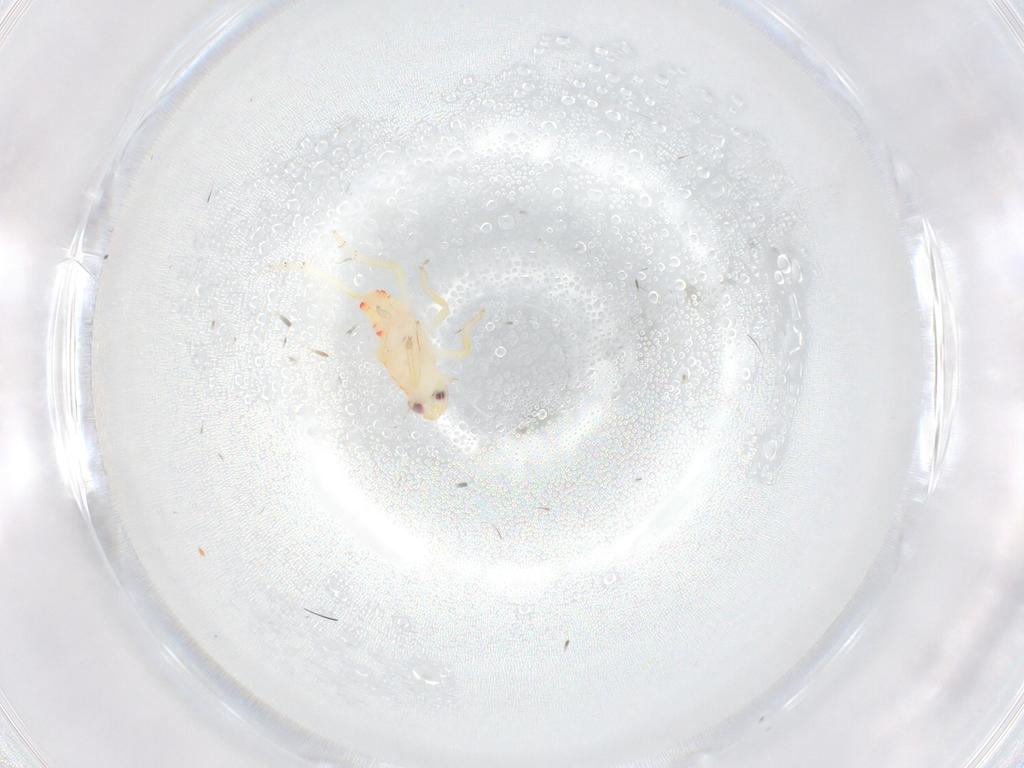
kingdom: Animalia
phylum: Arthropoda
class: Insecta
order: Hemiptera
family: Tropiduchidae
